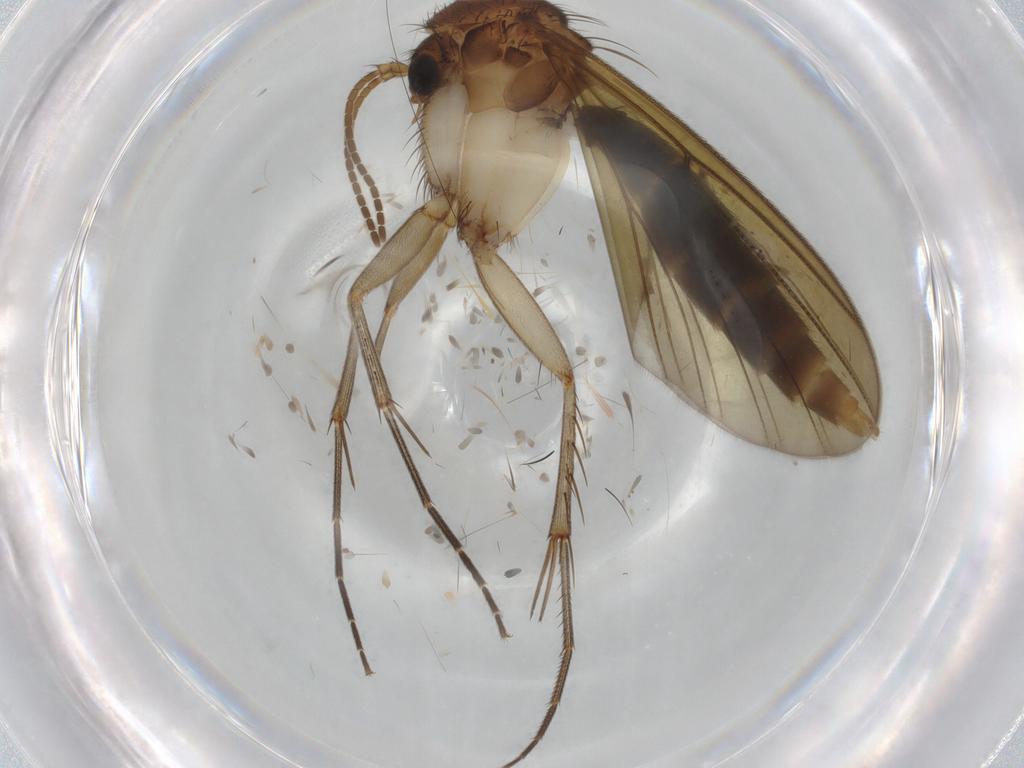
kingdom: Animalia
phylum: Arthropoda
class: Insecta
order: Diptera
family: Mycetophilidae
